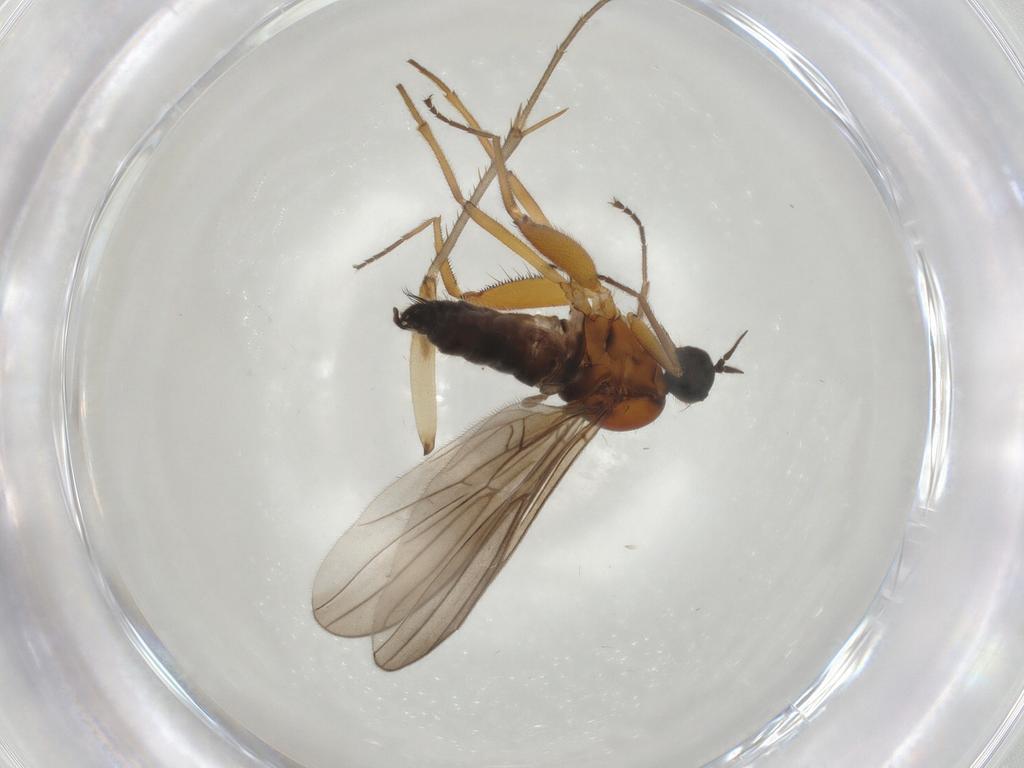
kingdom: Animalia
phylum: Arthropoda
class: Insecta
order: Diptera
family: Hybotidae
